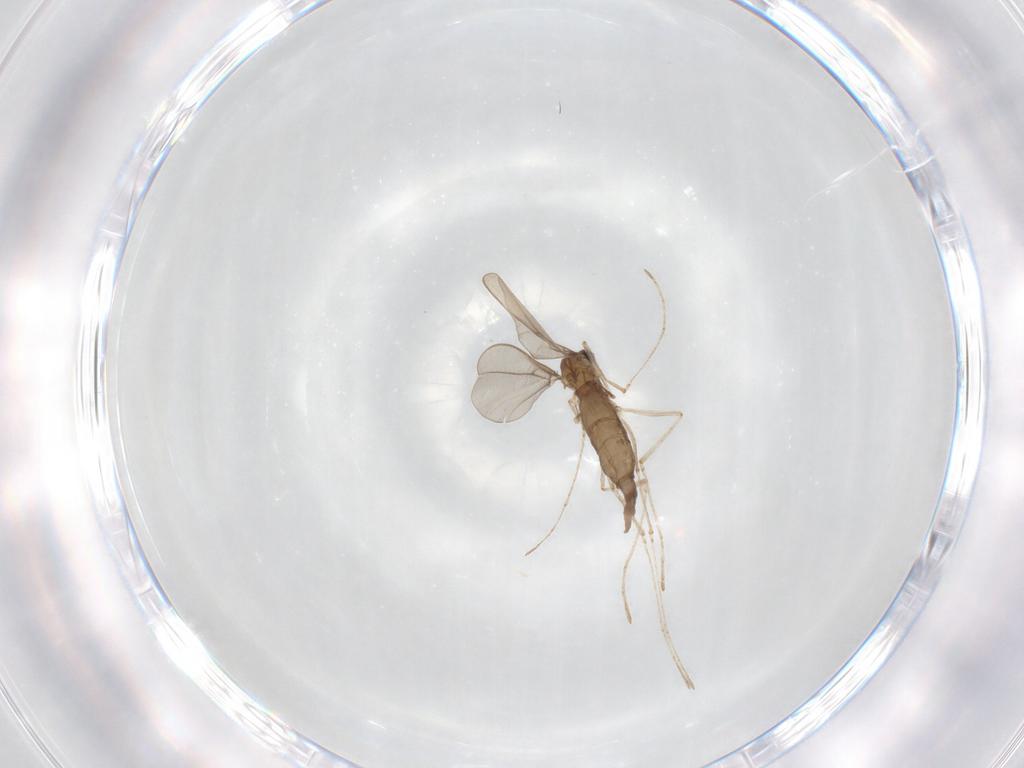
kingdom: Animalia
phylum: Arthropoda
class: Insecta
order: Diptera
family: Cecidomyiidae
